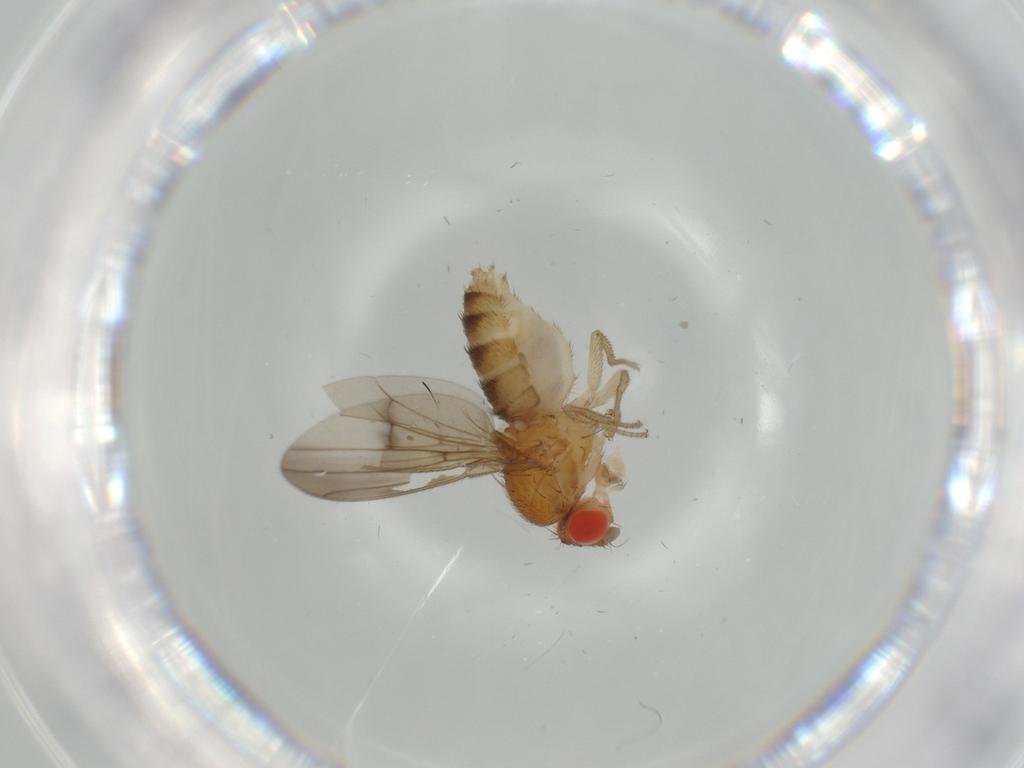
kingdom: Animalia
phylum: Arthropoda
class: Insecta
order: Diptera
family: Drosophilidae
